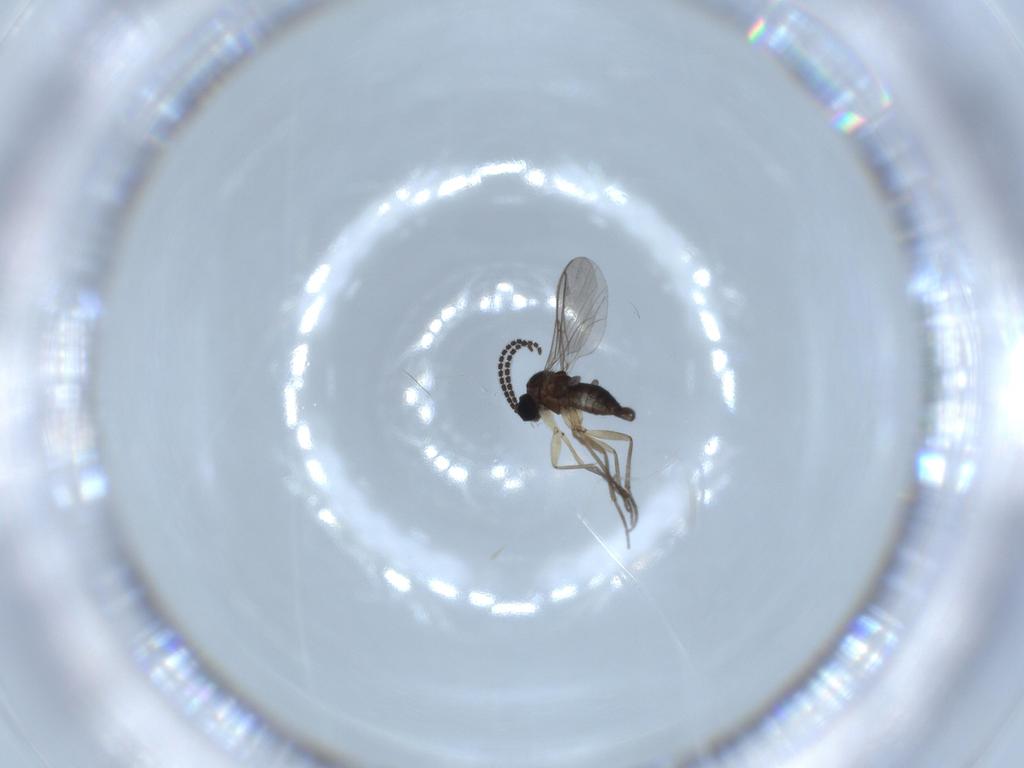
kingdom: Animalia
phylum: Arthropoda
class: Insecta
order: Diptera
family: Sciaridae
